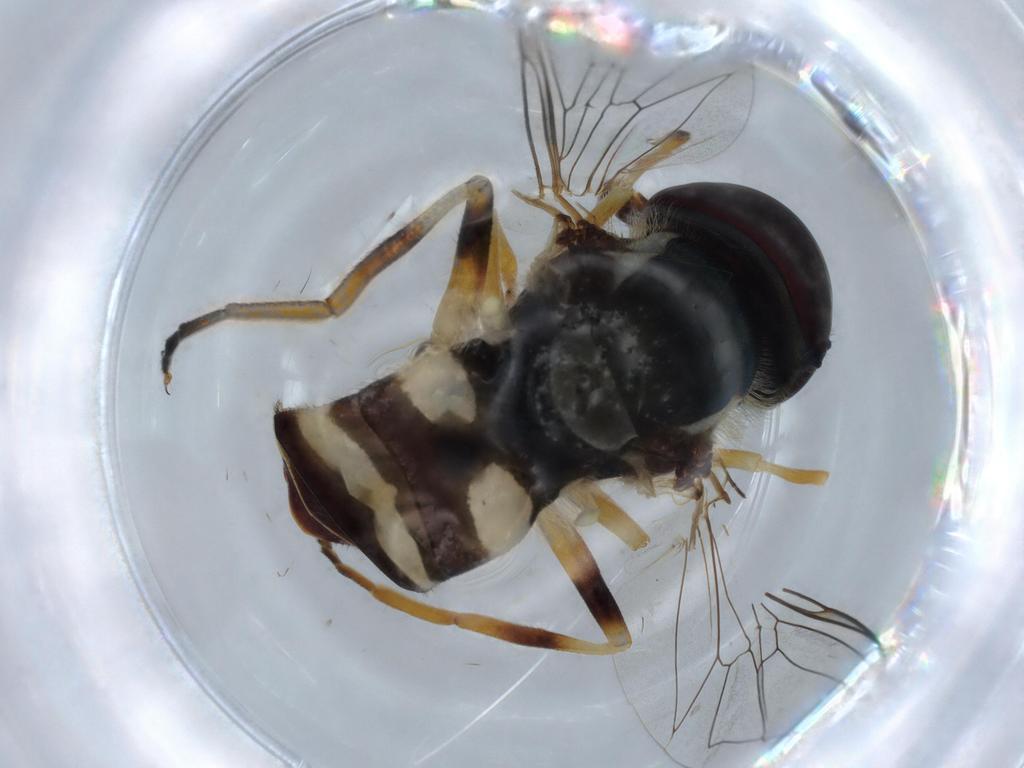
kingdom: Animalia
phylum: Arthropoda
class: Insecta
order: Diptera
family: Syrphidae
